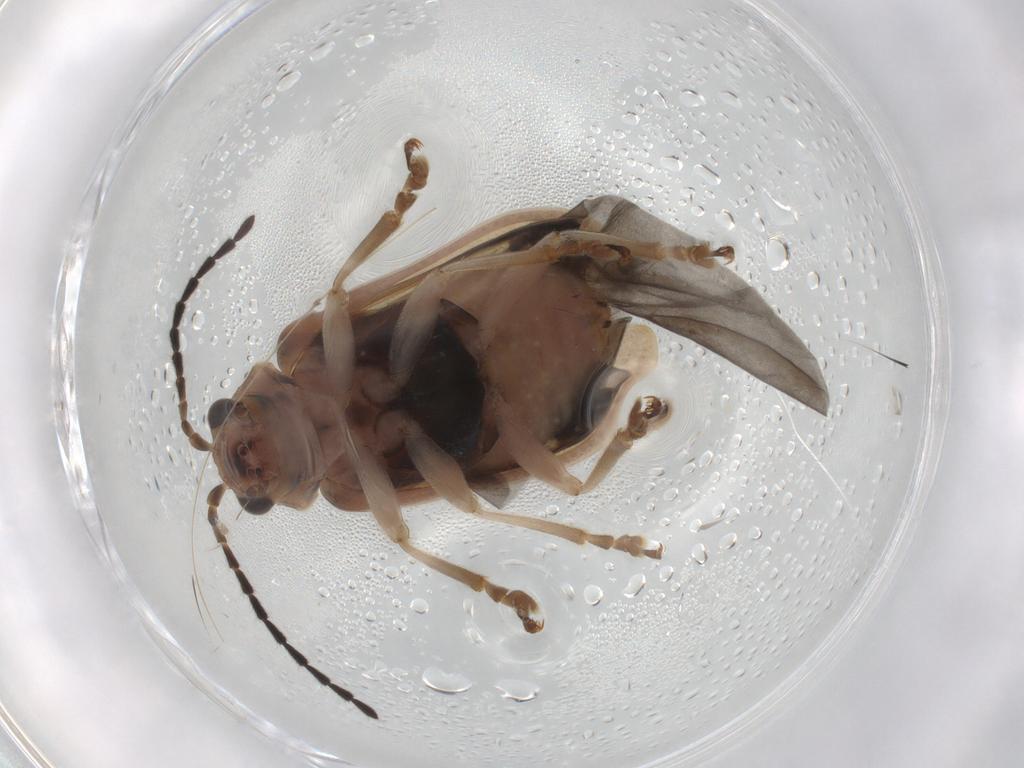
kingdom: Animalia
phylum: Arthropoda
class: Insecta
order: Coleoptera
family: Chrysomelidae
